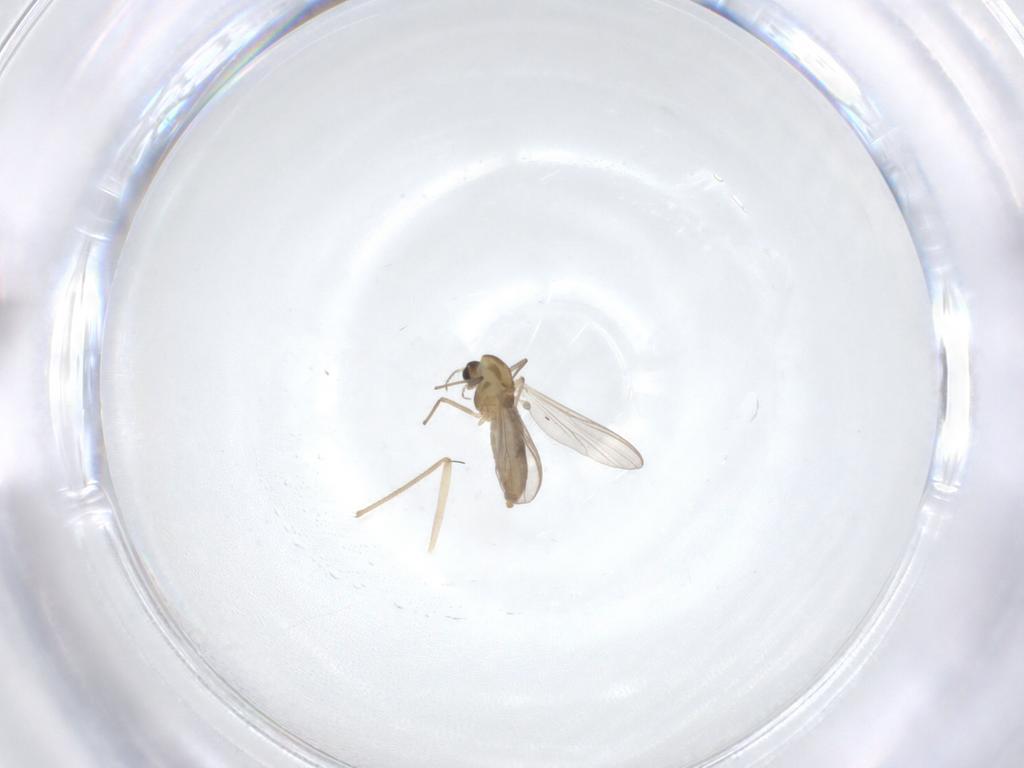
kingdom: Animalia
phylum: Arthropoda
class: Insecta
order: Diptera
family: Chironomidae
